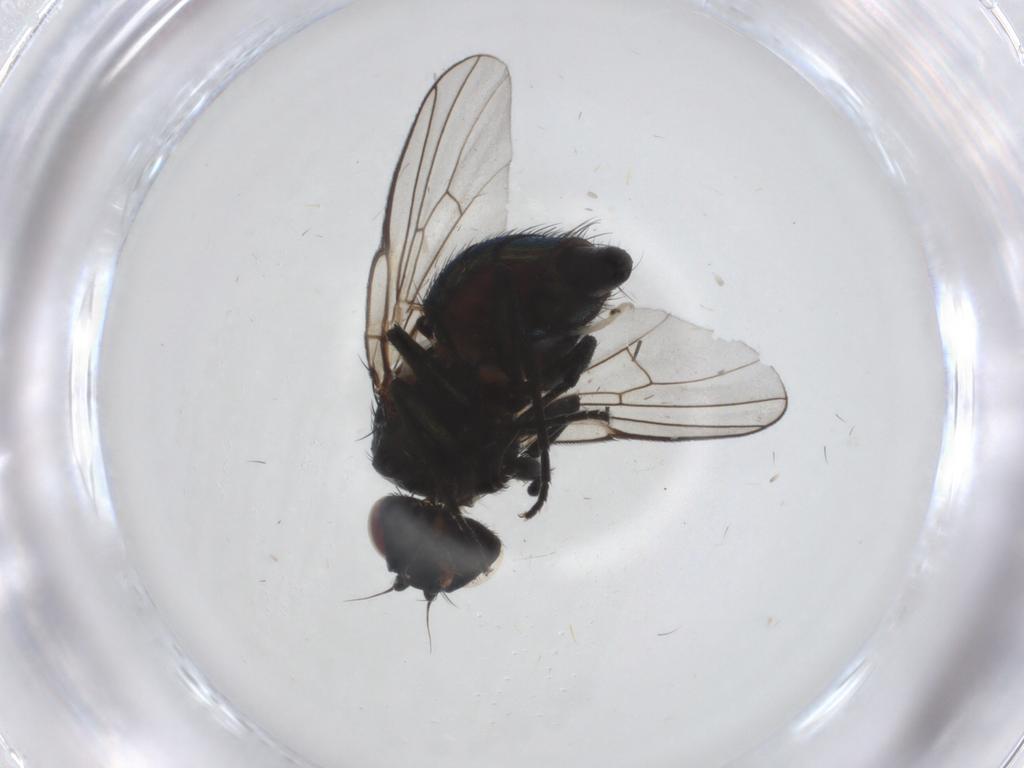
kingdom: Animalia
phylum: Arthropoda
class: Insecta
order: Diptera
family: Agromyzidae
